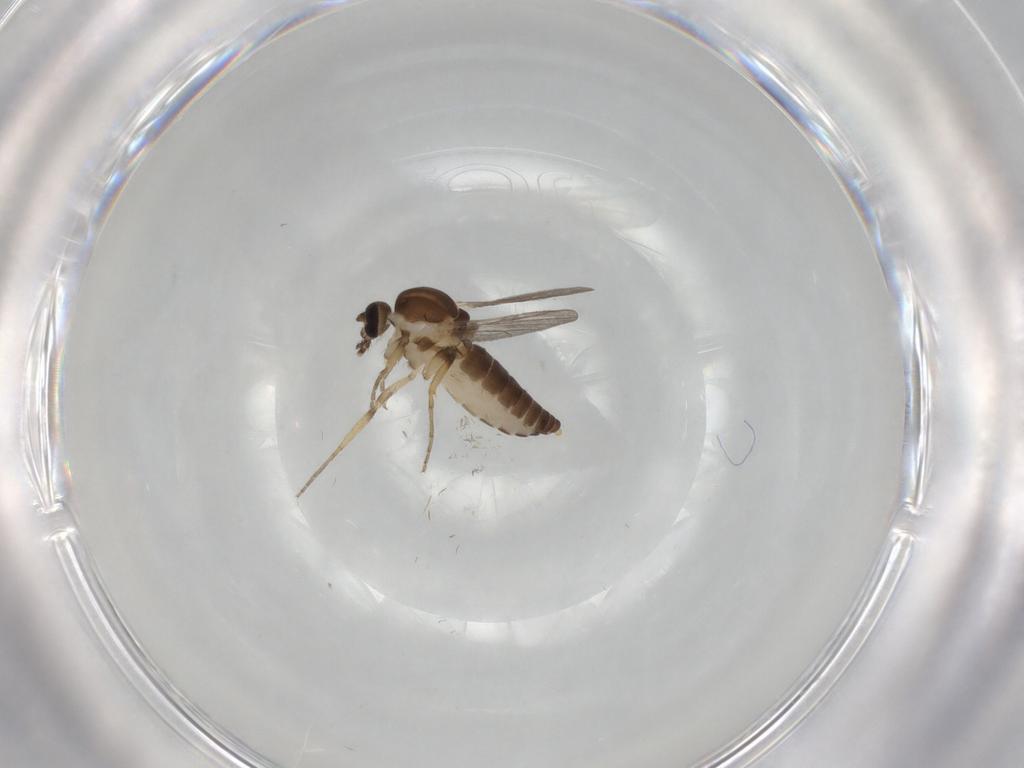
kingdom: Animalia
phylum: Arthropoda
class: Insecta
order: Diptera
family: Ceratopogonidae
